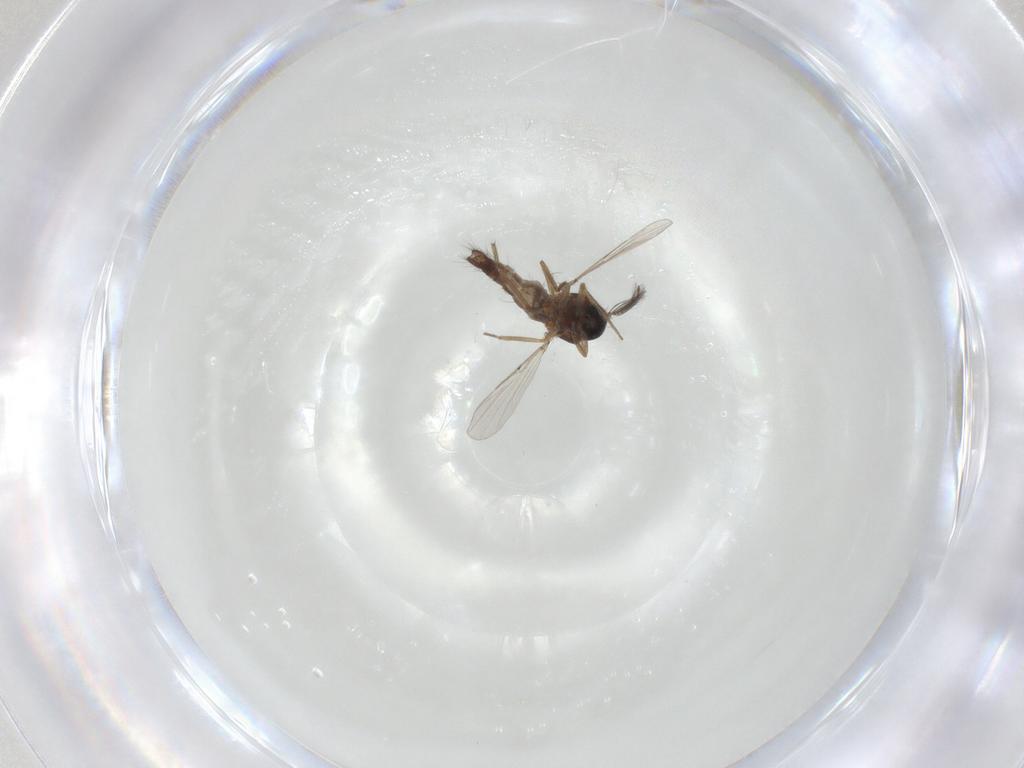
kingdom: Animalia
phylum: Arthropoda
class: Insecta
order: Diptera
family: Ceratopogonidae
